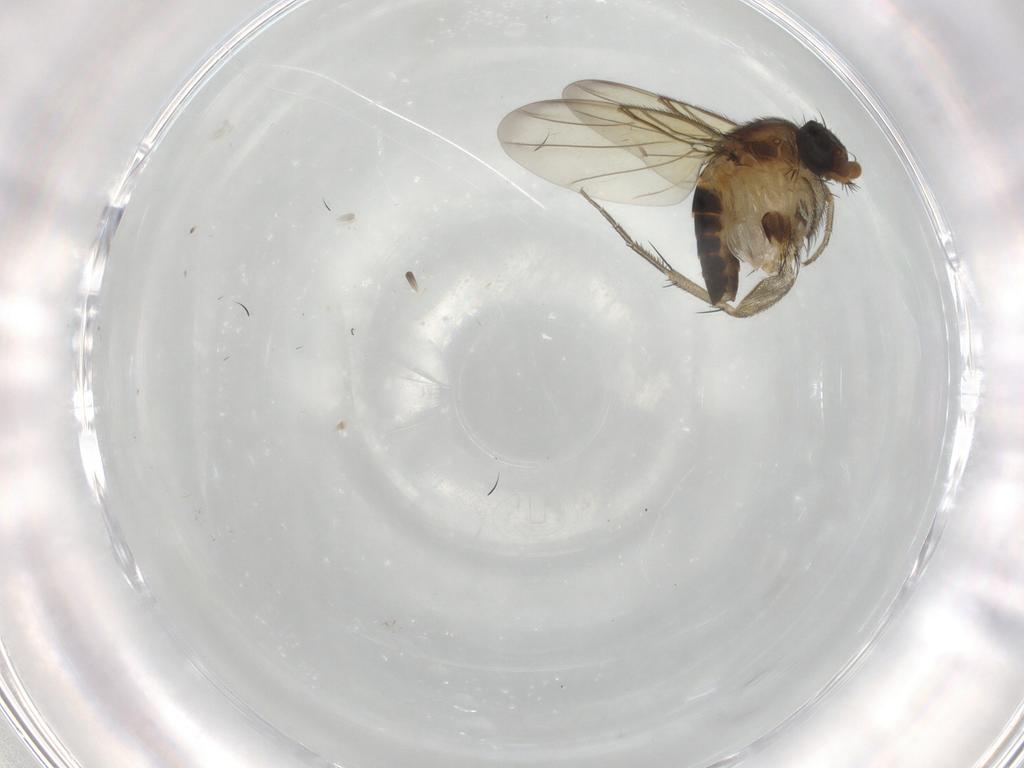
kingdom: Animalia
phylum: Arthropoda
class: Insecta
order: Diptera
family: Phoridae
